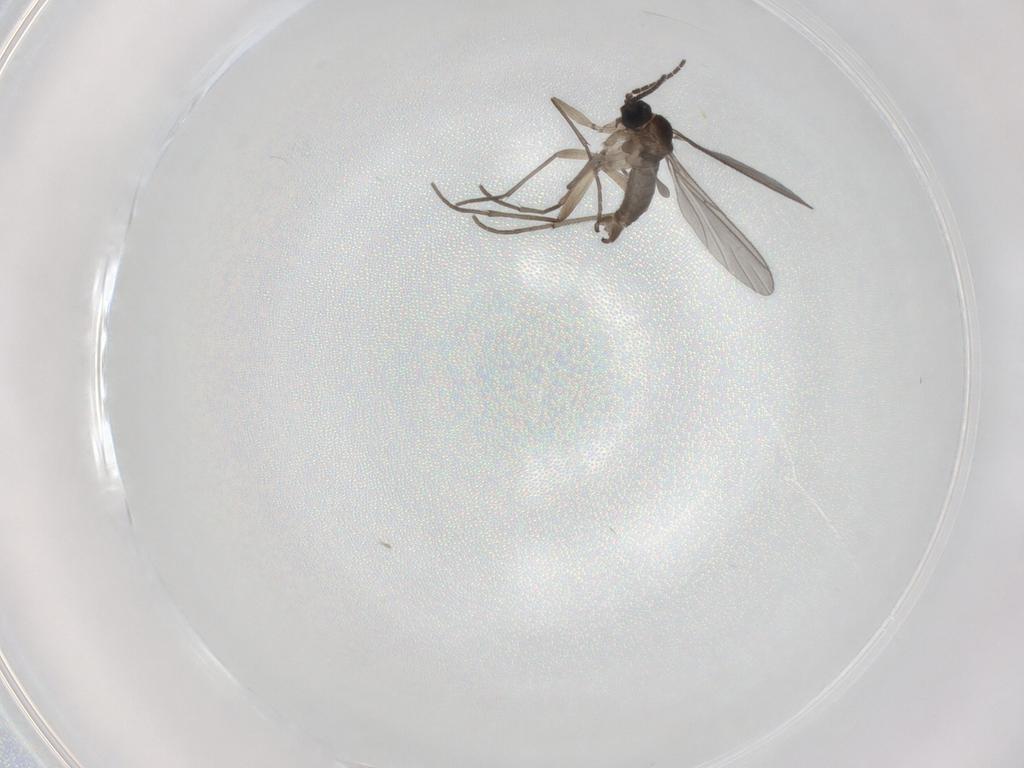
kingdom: Animalia
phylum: Arthropoda
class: Insecta
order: Diptera
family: Sciaridae
